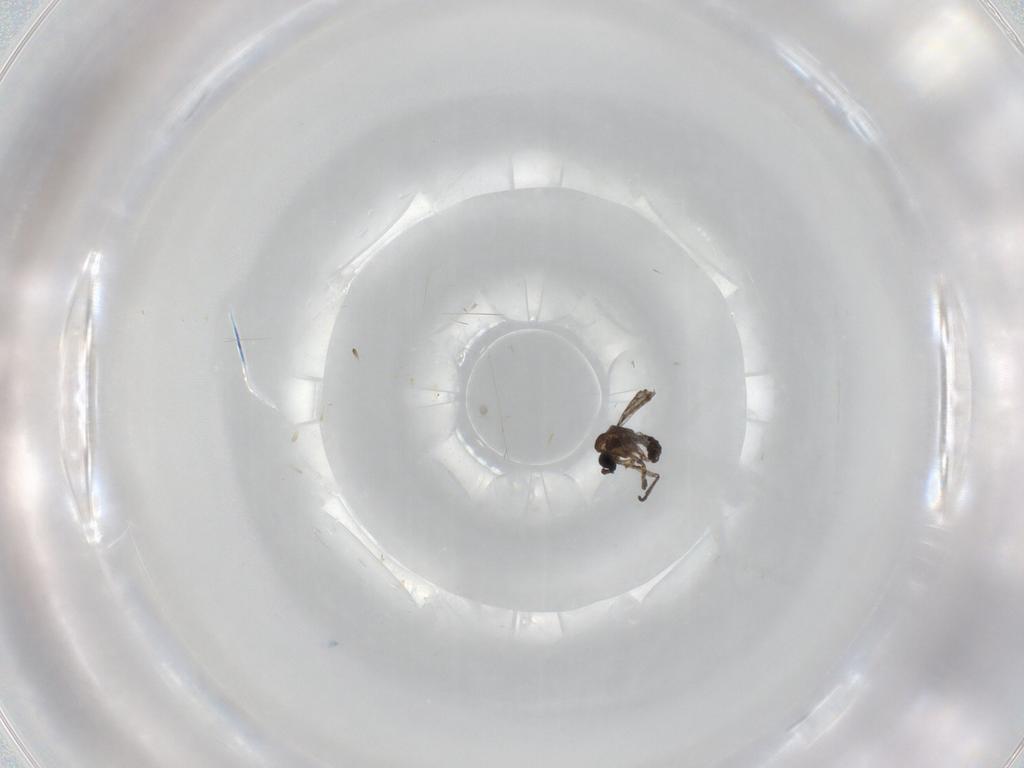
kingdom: Animalia
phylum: Arthropoda
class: Insecta
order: Diptera
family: Cecidomyiidae
